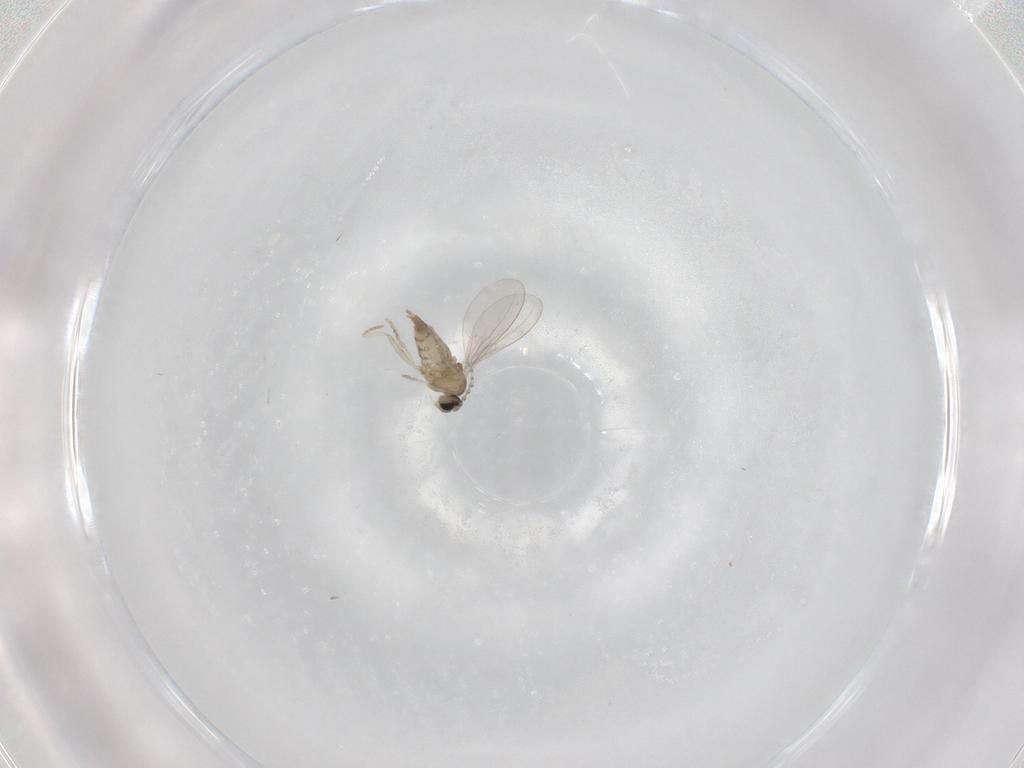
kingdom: Animalia
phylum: Arthropoda
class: Insecta
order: Diptera
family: Cecidomyiidae
